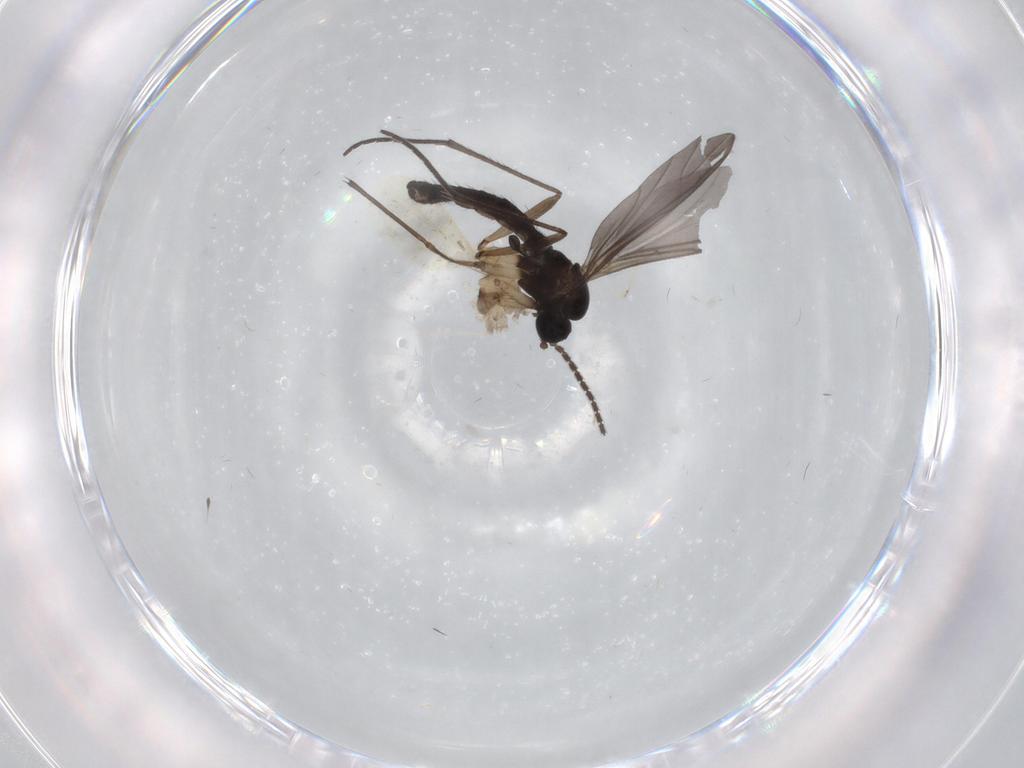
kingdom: Animalia
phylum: Arthropoda
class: Insecta
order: Diptera
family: Sciaridae
